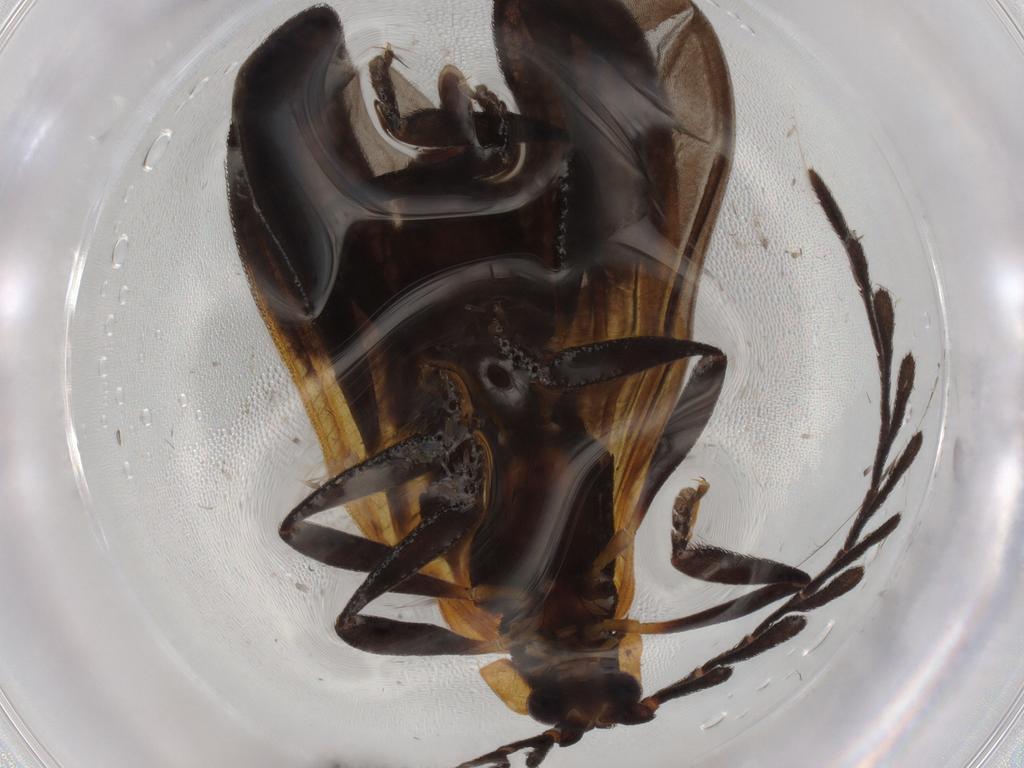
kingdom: Animalia
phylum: Arthropoda
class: Insecta
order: Coleoptera
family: Lycidae
